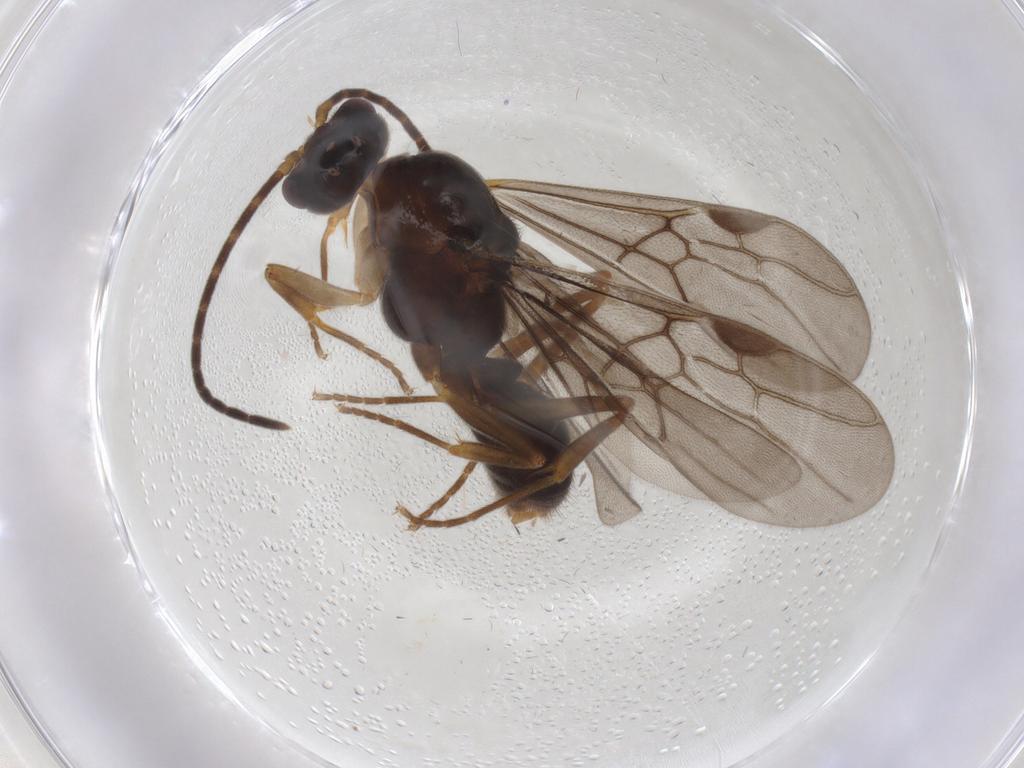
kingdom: Animalia
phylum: Arthropoda
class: Insecta
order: Hymenoptera
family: Formicidae
